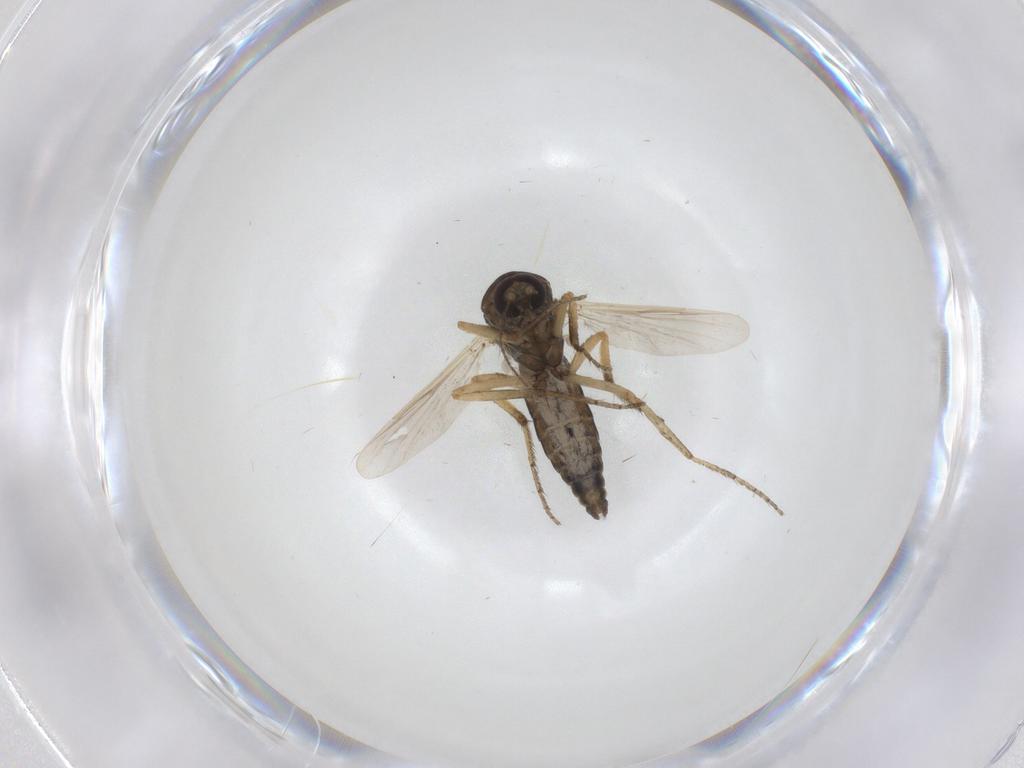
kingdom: Animalia
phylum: Arthropoda
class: Insecta
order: Diptera
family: Ceratopogonidae
